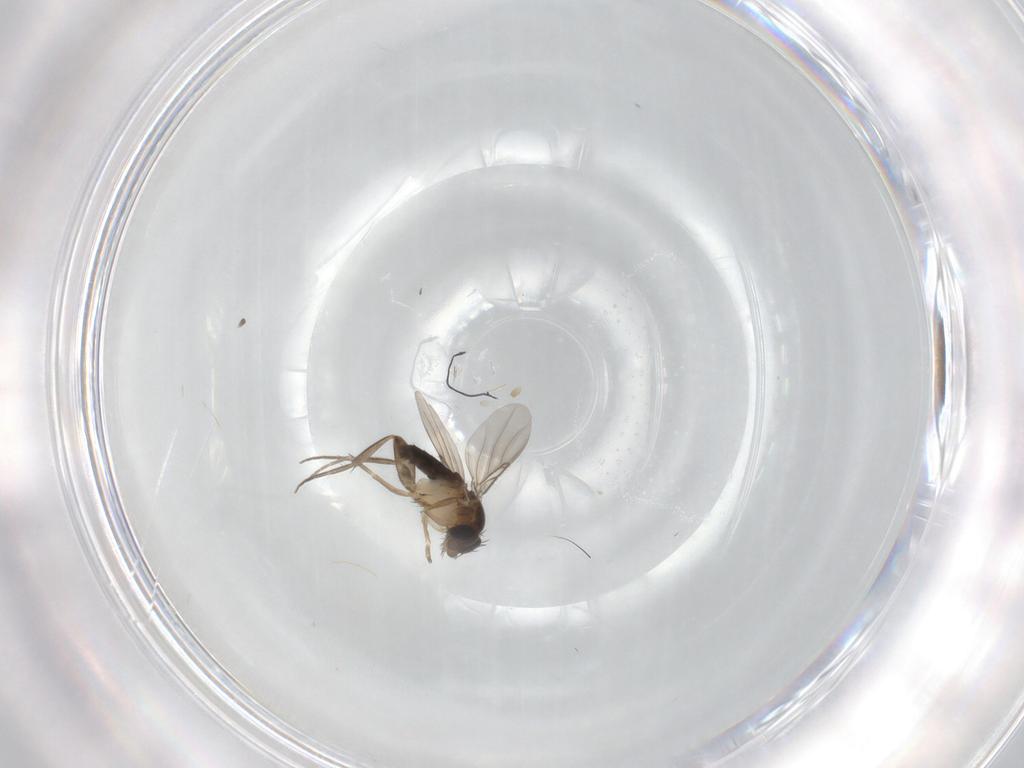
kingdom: Animalia
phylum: Arthropoda
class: Insecta
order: Diptera
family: Phoridae
